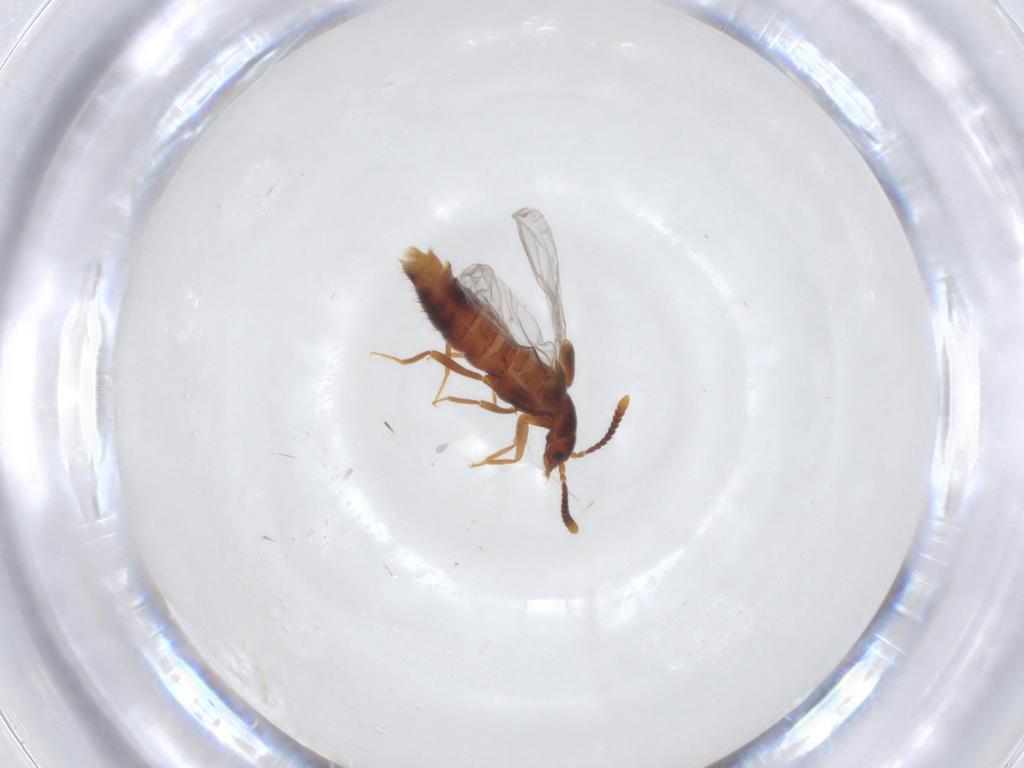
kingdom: Animalia
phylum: Arthropoda
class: Insecta
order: Coleoptera
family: Staphylinidae
